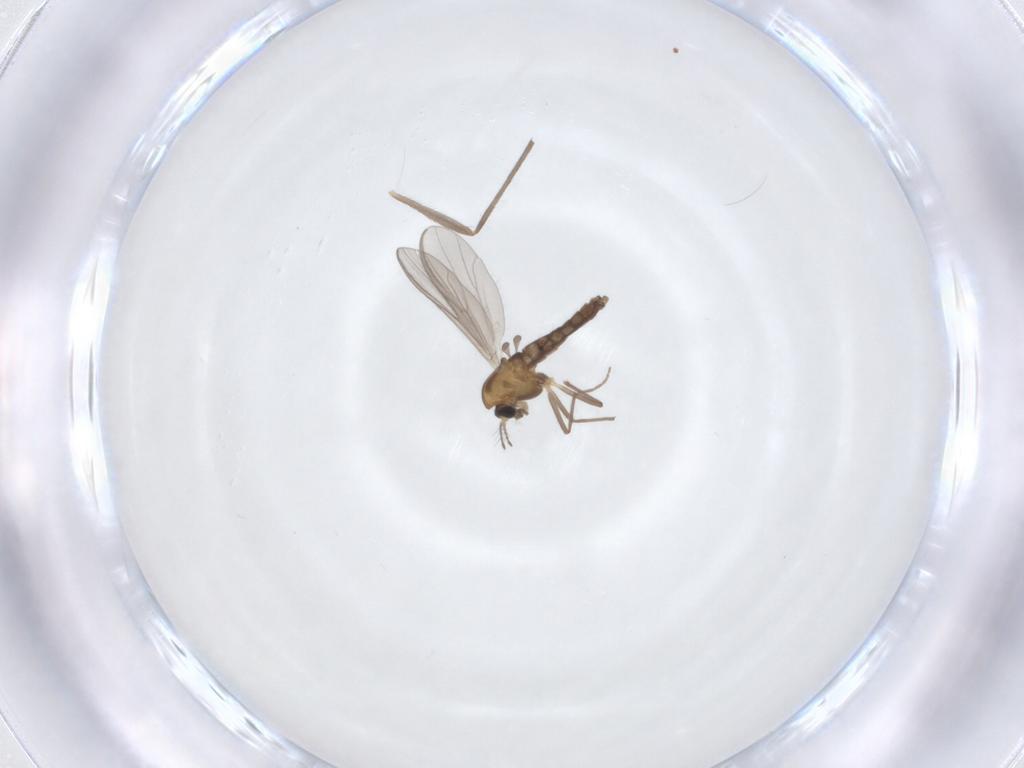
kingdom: Animalia
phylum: Arthropoda
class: Insecta
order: Diptera
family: Chironomidae
